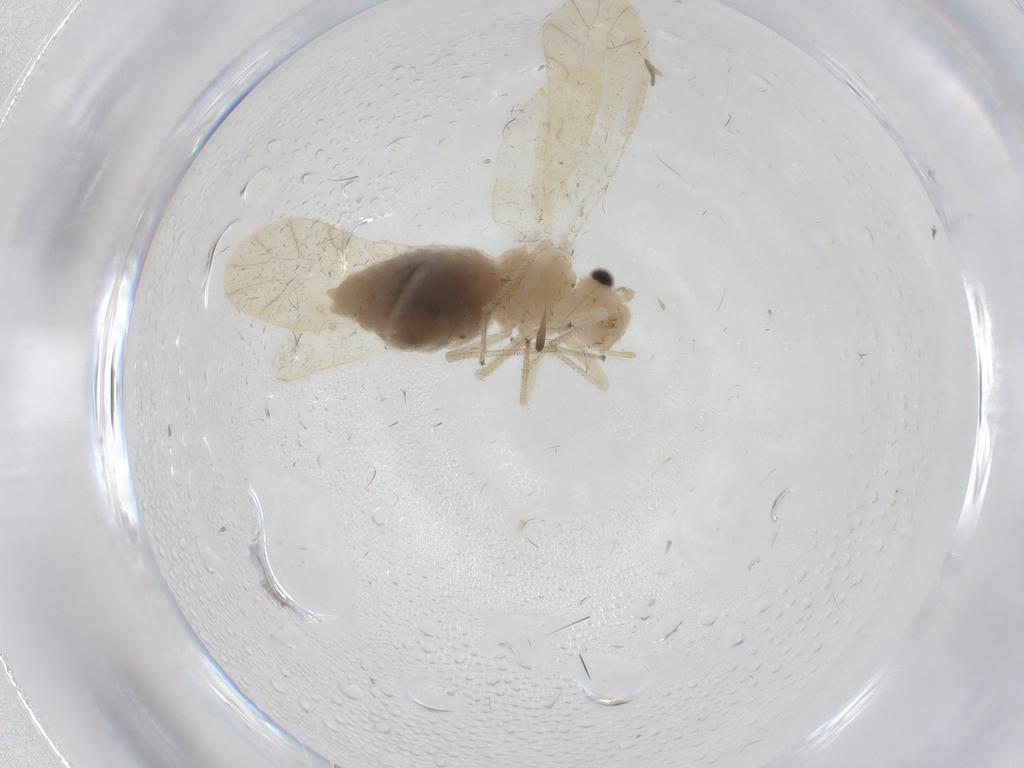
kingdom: Animalia
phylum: Arthropoda
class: Insecta
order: Psocodea
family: Caeciliusidae
